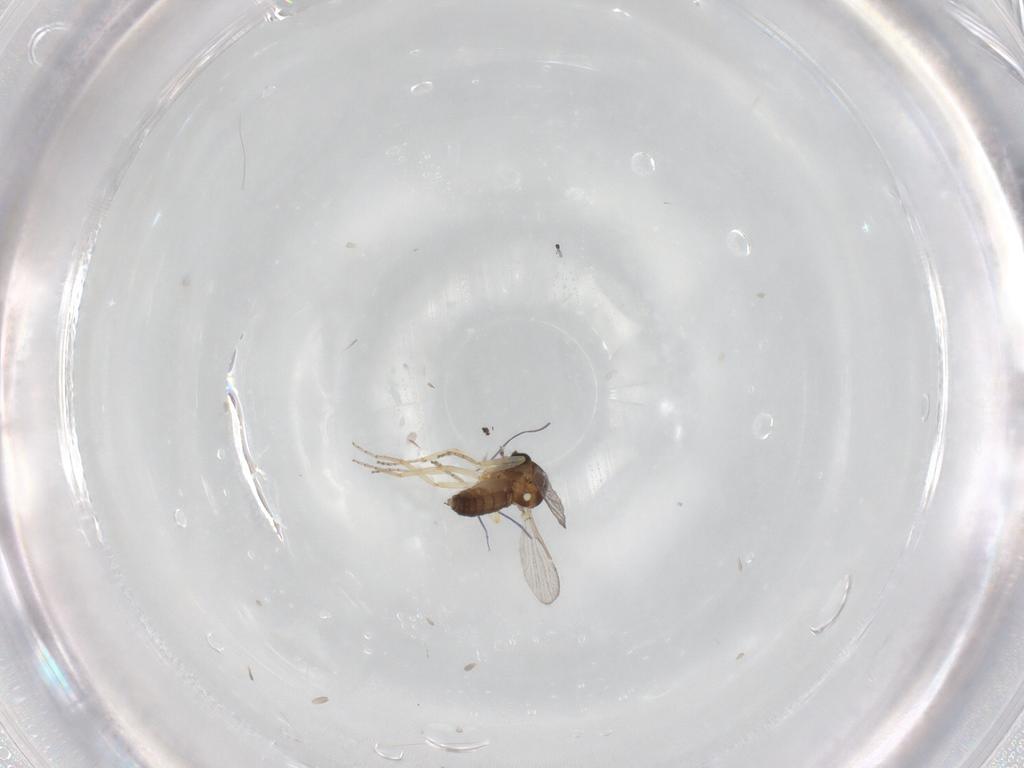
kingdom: Animalia
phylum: Arthropoda
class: Insecta
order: Diptera
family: Ceratopogonidae
